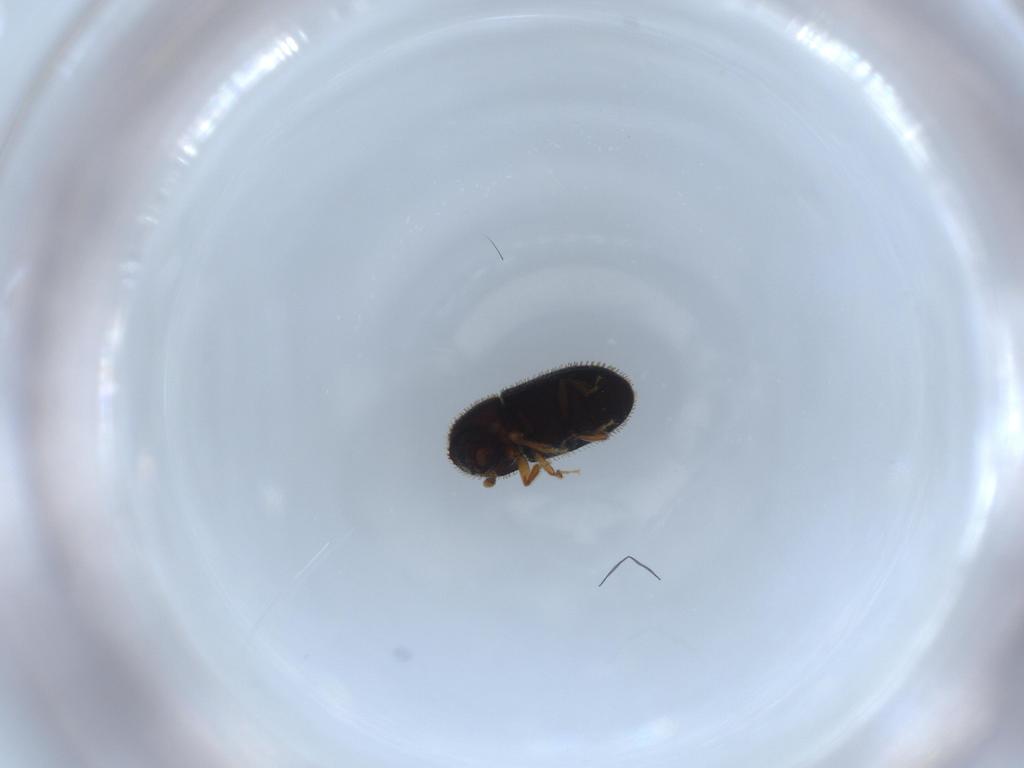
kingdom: Animalia
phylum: Arthropoda
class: Insecta
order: Coleoptera
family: Curculionidae
